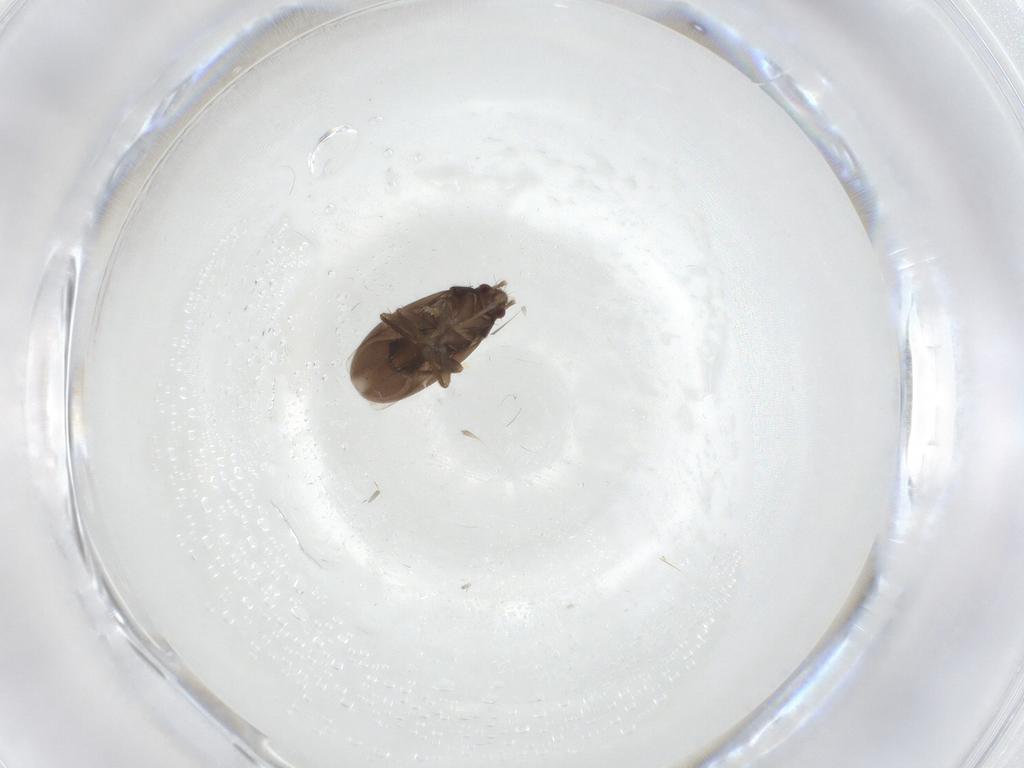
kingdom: Animalia
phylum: Arthropoda
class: Insecta
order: Hemiptera
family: Ceratocombidae
